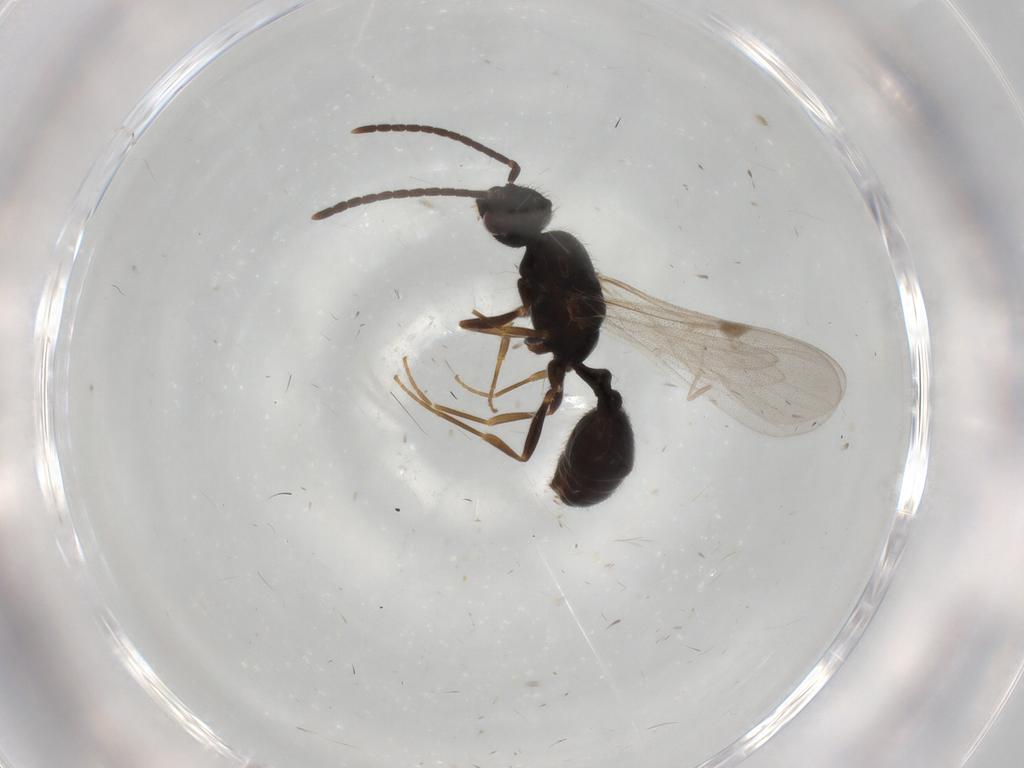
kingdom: Animalia
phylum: Arthropoda
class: Insecta
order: Hymenoptera
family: Formicidae
